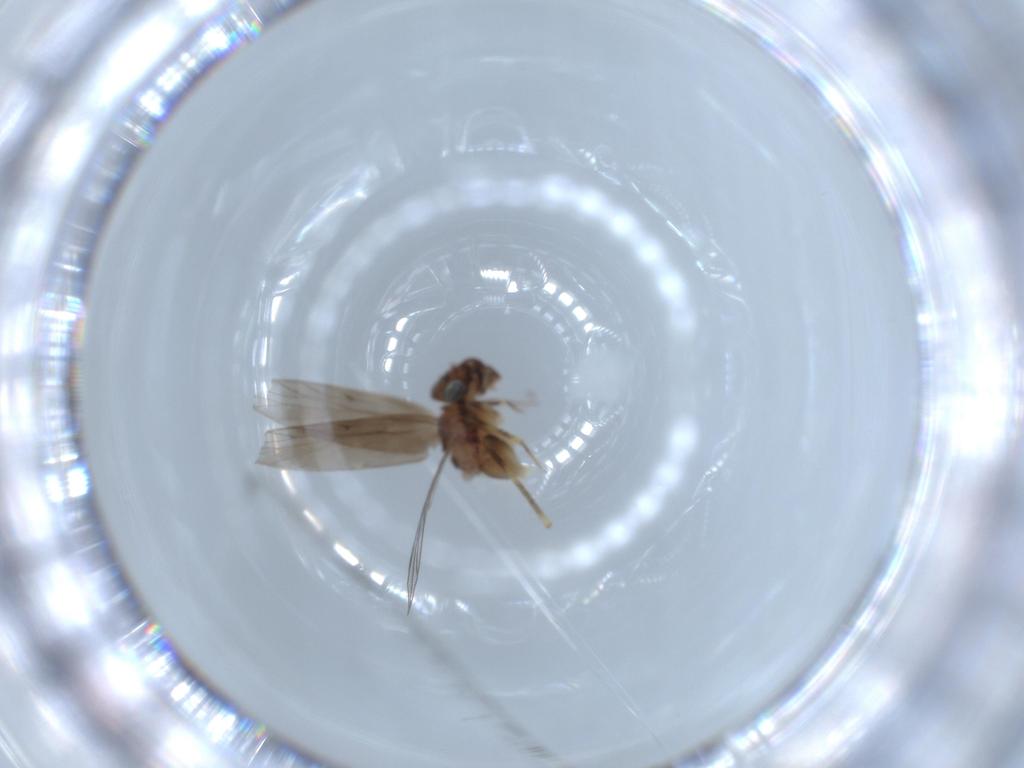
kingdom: Animalia
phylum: Arthropoda
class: Insecta
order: Psocodea
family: Lepidopsocidae
